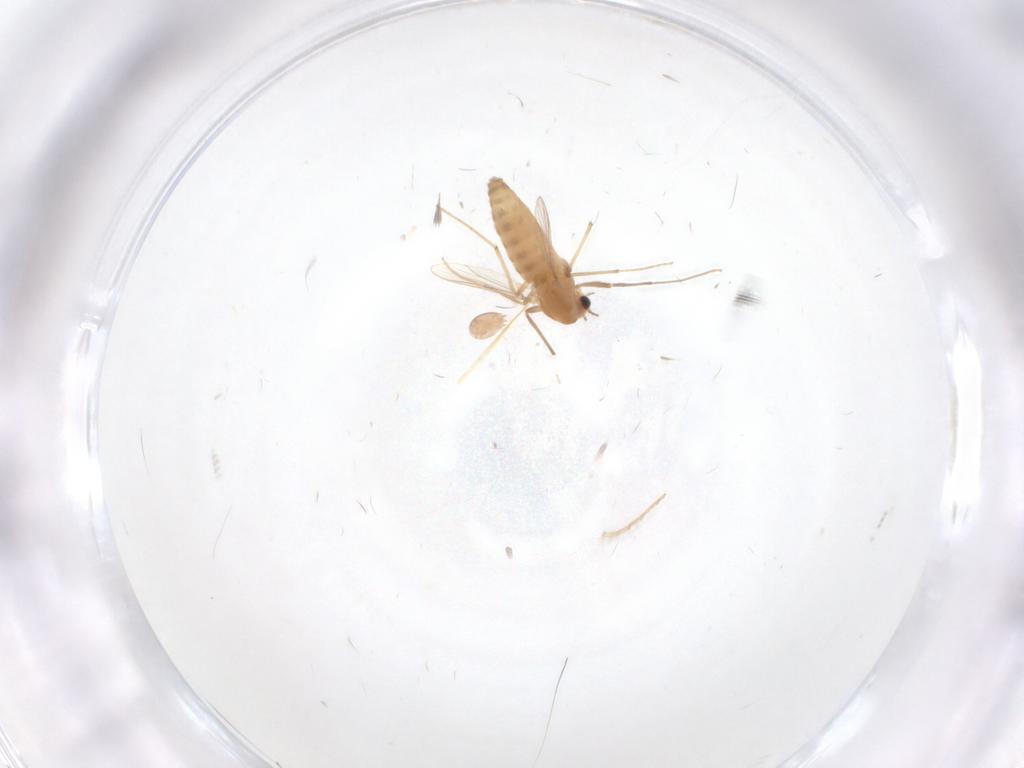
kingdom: Animalia
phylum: Arthropoda
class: Insecta
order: Diptera
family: Chironomidae
